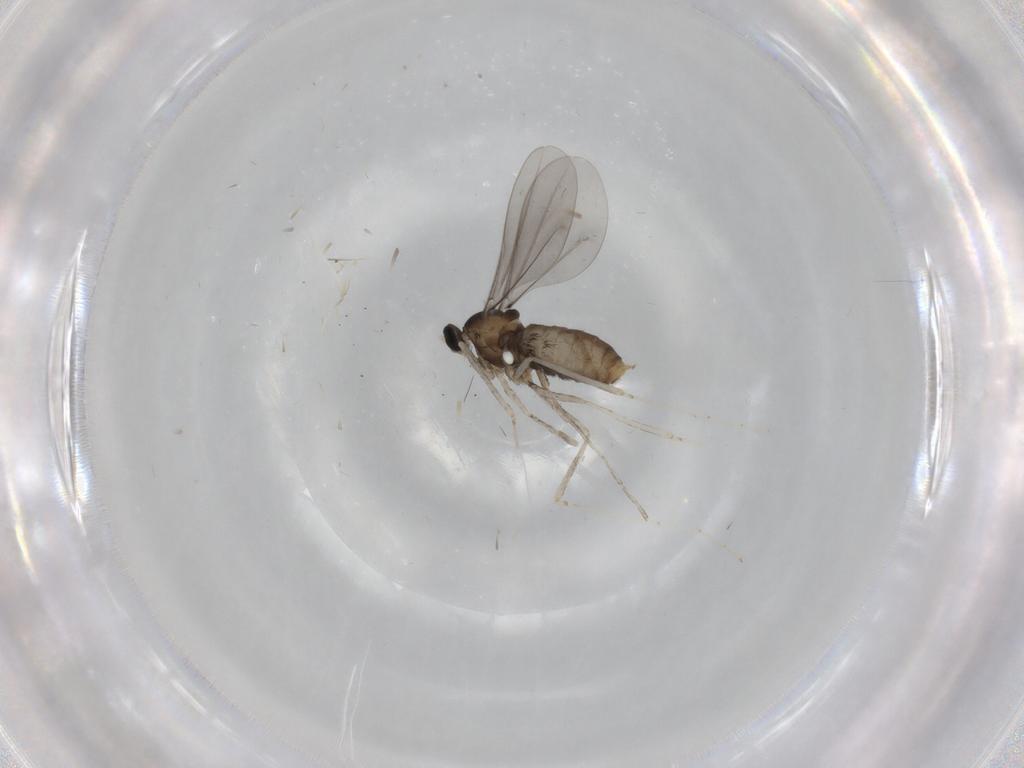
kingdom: Animalia
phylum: Arthropoda
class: Insecta
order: Diptera
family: Cecidomyiidae
